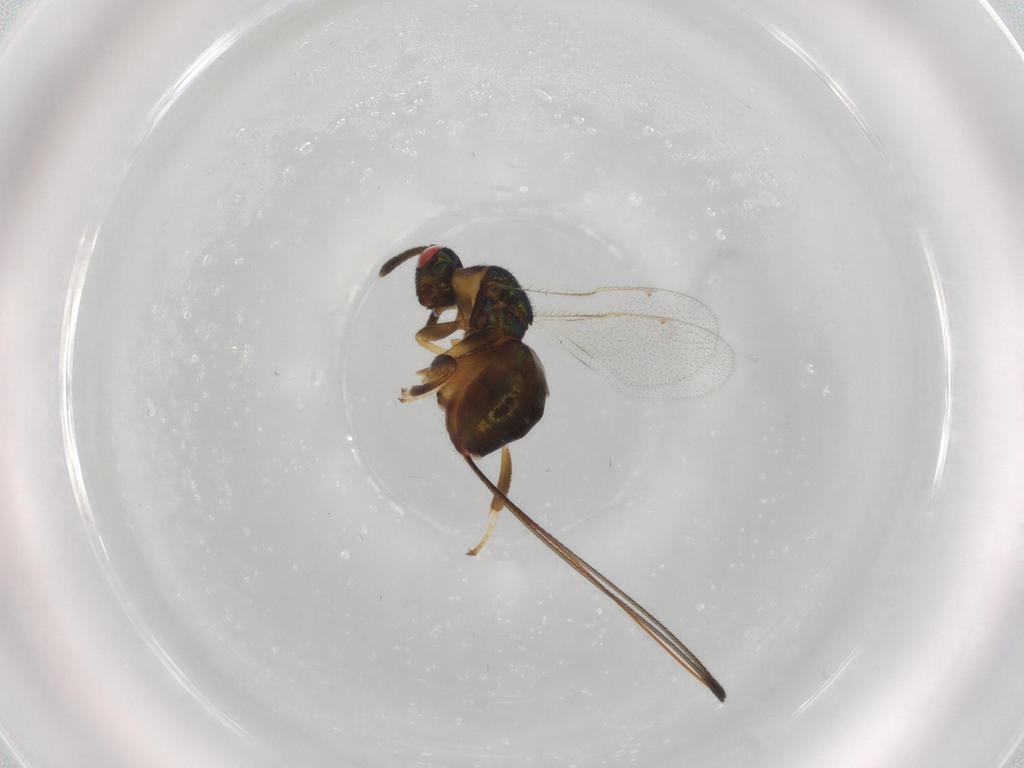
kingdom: Animalia
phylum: Arthropoda
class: Insecta
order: Hymenoptera
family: Torymidae
